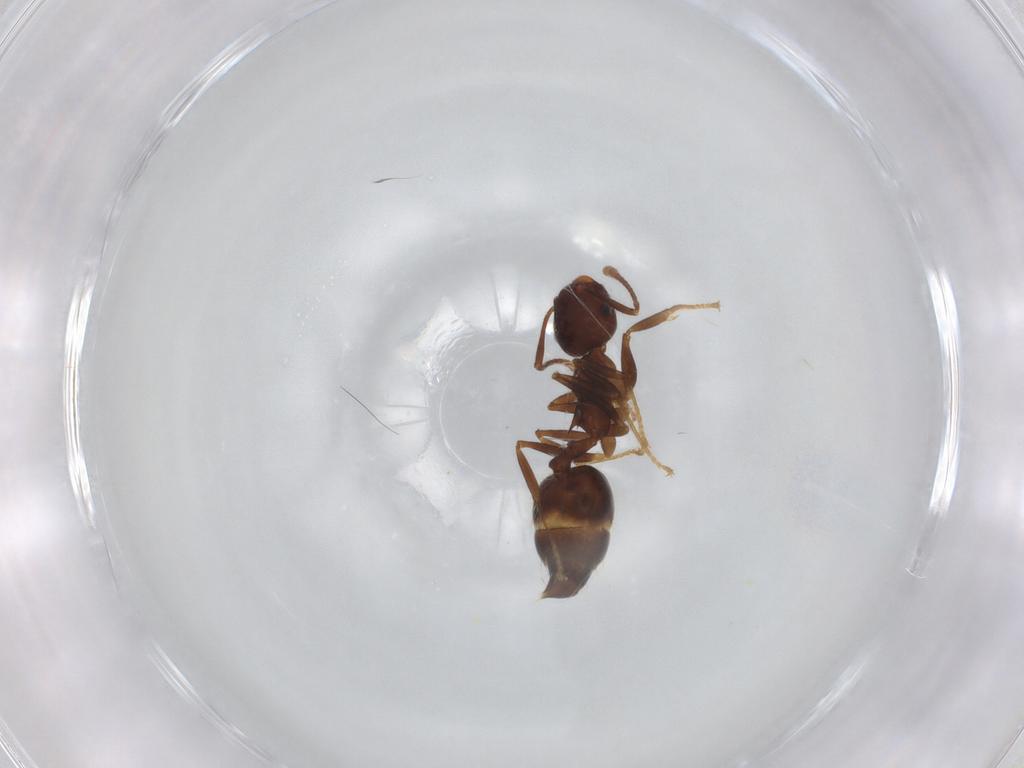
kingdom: Animalia
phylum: Arthropoda
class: Insecta
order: Hymenoptera
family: Formicidae
